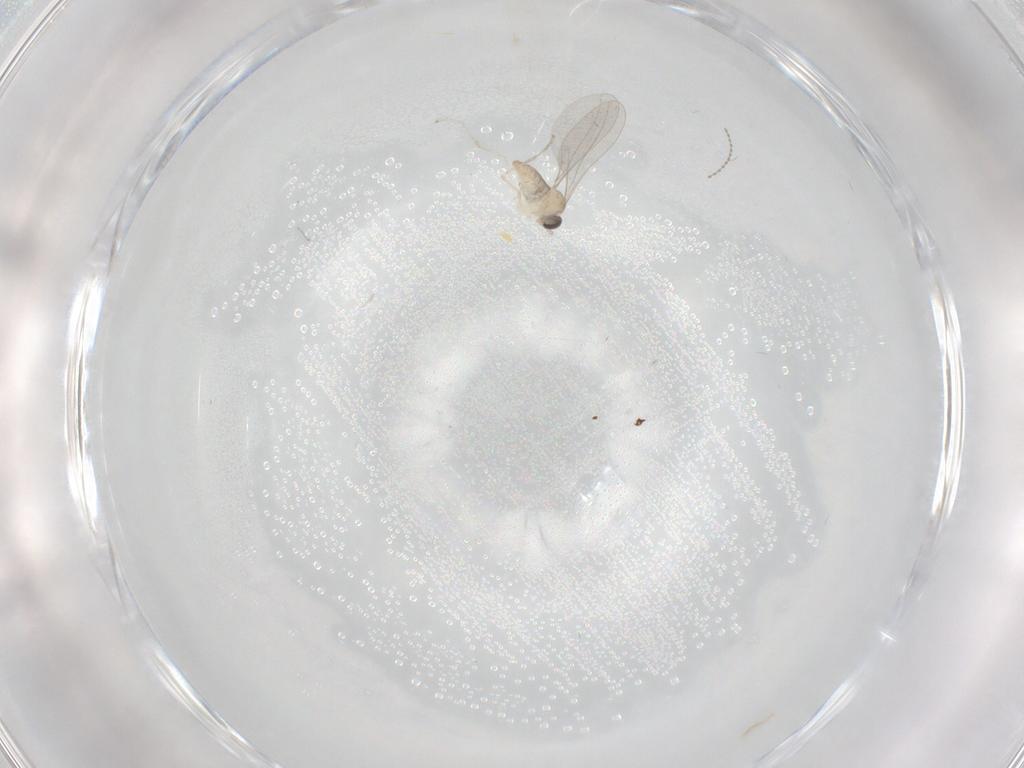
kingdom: Animalia
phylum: Arthropoda
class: Insecta
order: Diptera
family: Cecidomyiidae
